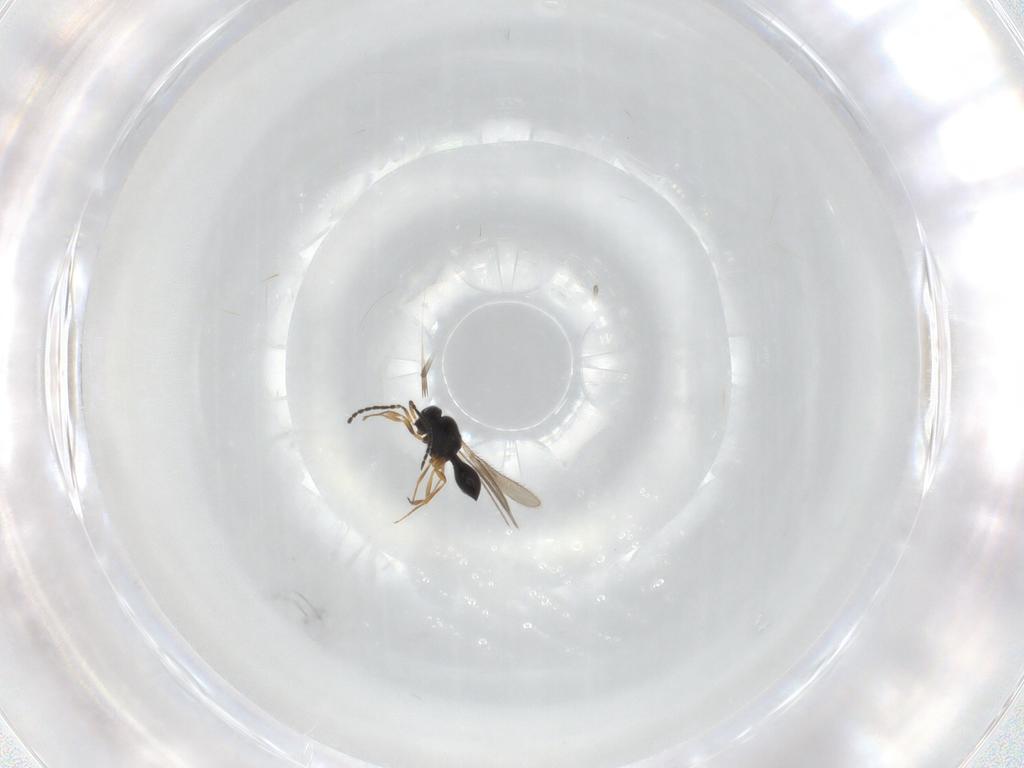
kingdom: Animalia
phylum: Arthropoda
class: Insecta
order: Hymenoptera
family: Scelionidae
